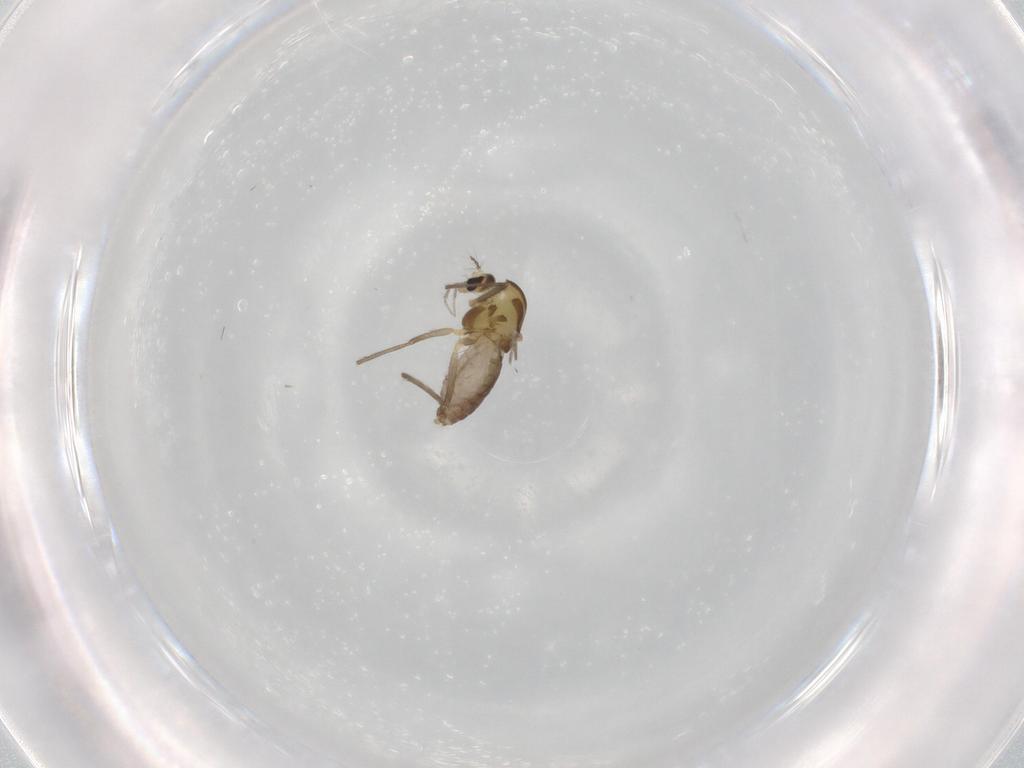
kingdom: Animalia
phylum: Arthropoda
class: Insecta
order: Diptera
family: Chironomidae
